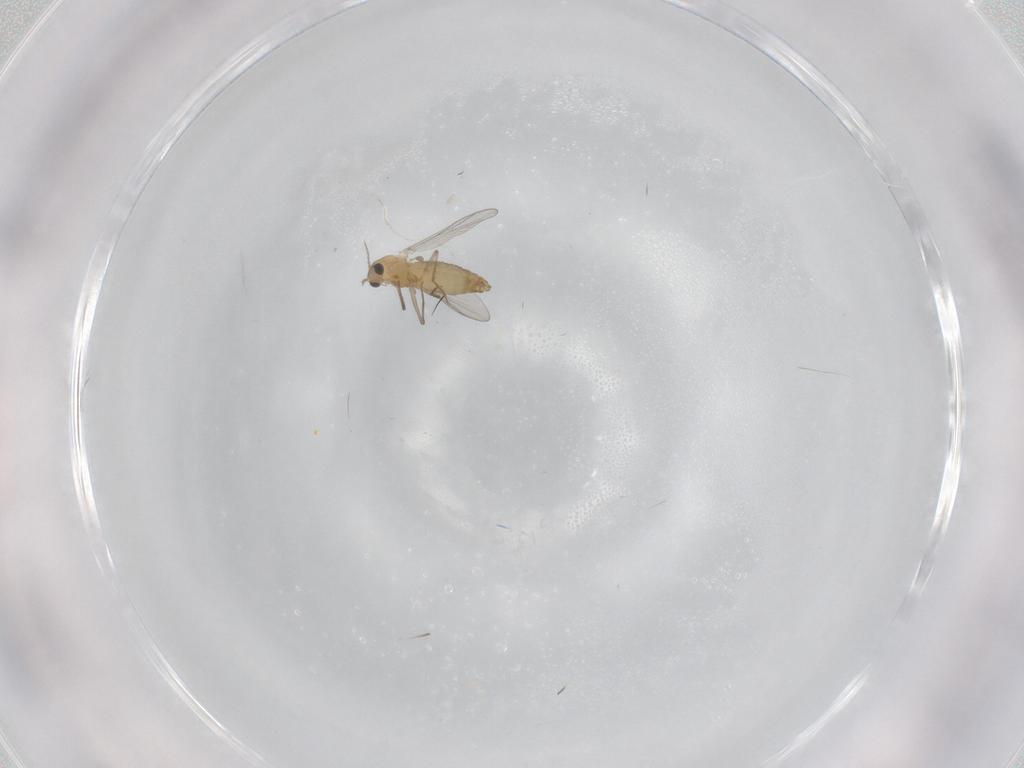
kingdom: Animalia
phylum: Arthropoda
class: Insecta
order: Diptera
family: Chironomidae
